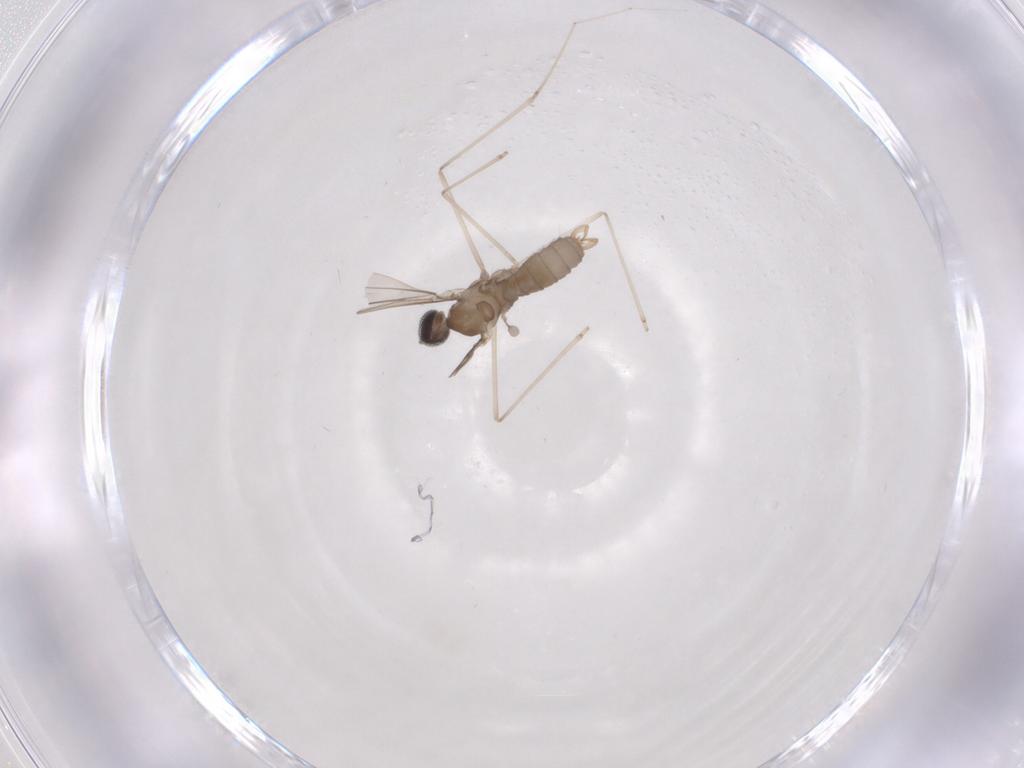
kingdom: Animalia
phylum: Arthropoda
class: Insecta
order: Diptera
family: Cecidomyiidae
